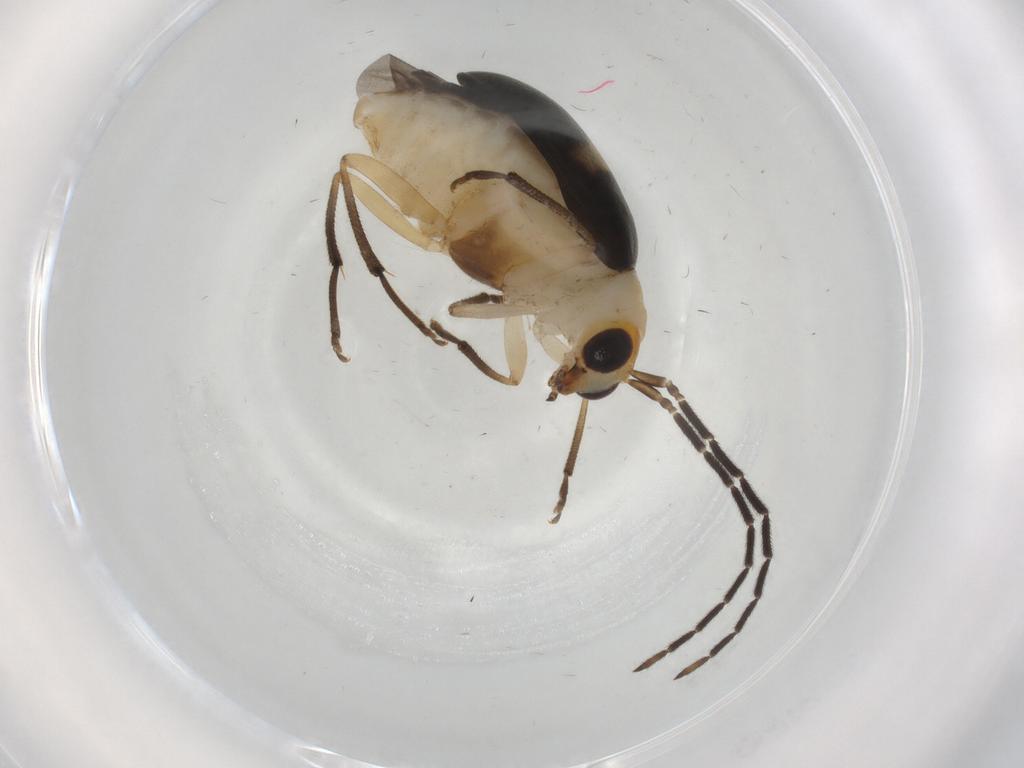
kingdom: Animalia
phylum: Arthropoda
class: Insecta
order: Coleoptera
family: Chrysomelidae
